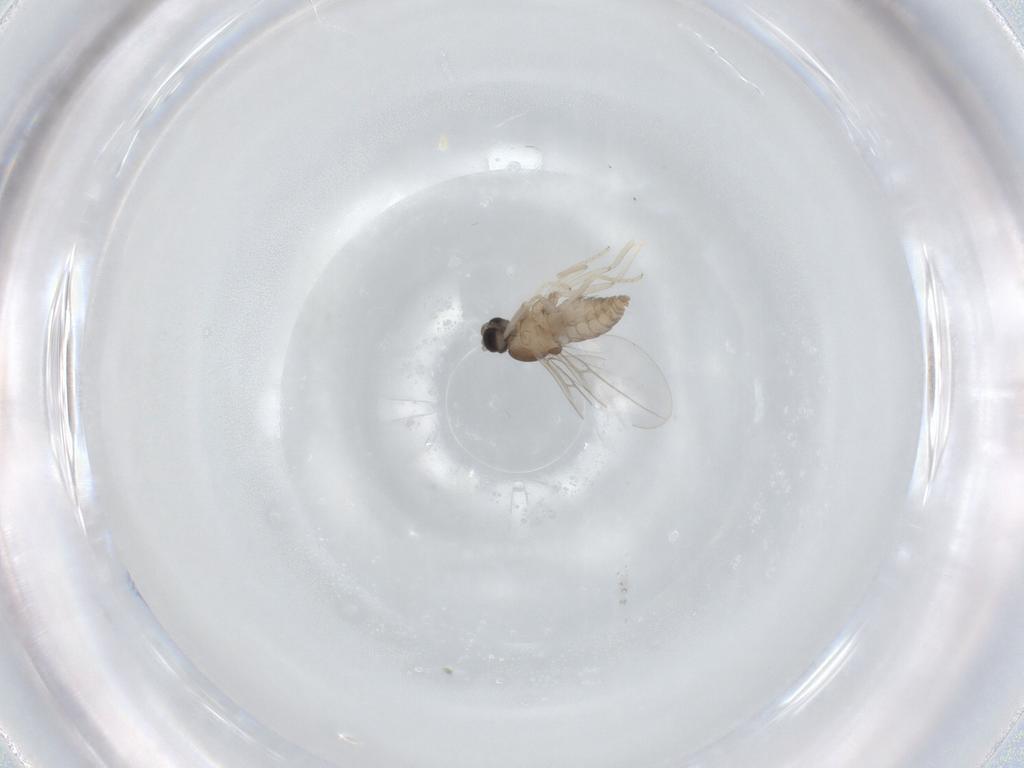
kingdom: Animalia
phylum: Arthropoda
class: Insecta
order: Diptera
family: Cecidomyiidae
